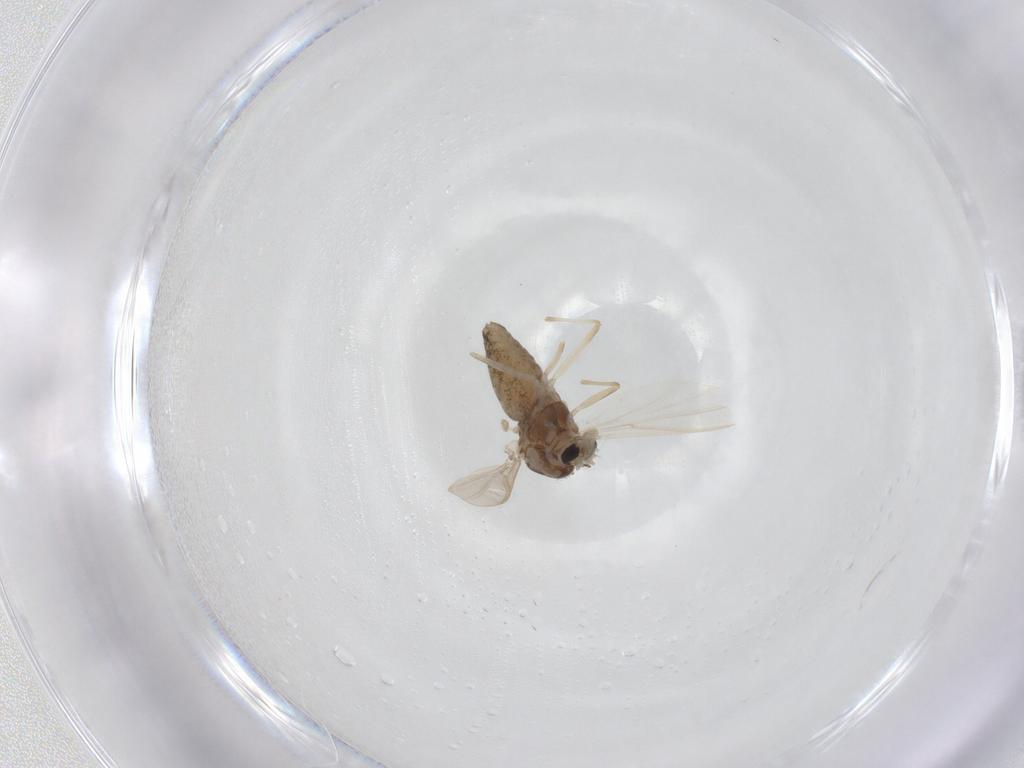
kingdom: Animalia
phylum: Arthropoda
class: Insecta
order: Diptera
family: Chironomidae
